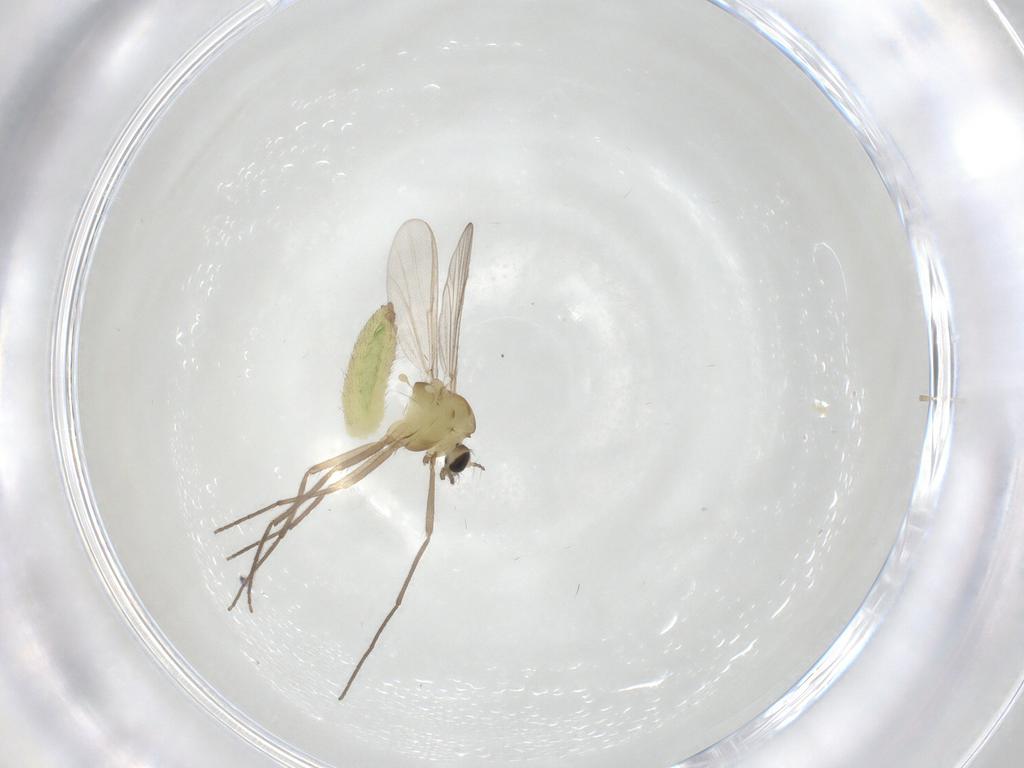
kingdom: Animalia
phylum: Arthropoda
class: Insecta
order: Diptera
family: Chironomidae
